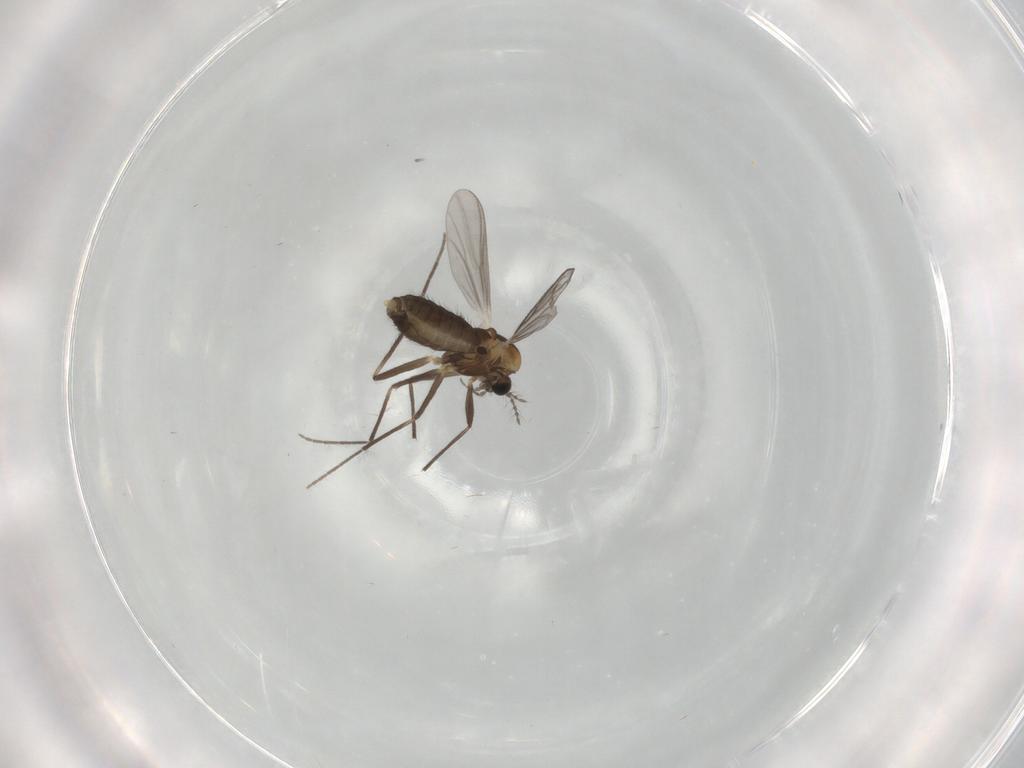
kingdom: Animalia
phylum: Arthropoda
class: Insecta
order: Diptera
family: Chironomidae
